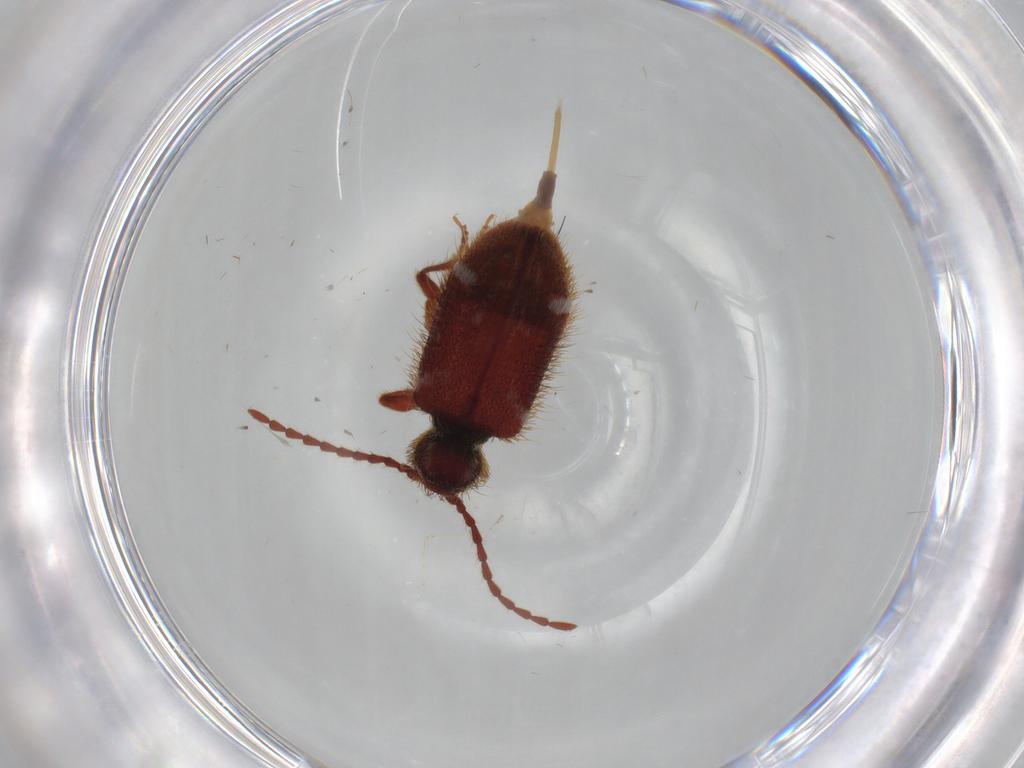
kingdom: Animalia
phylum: Arthropoda
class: Insecta
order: Coleoptera
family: Ptinidae
